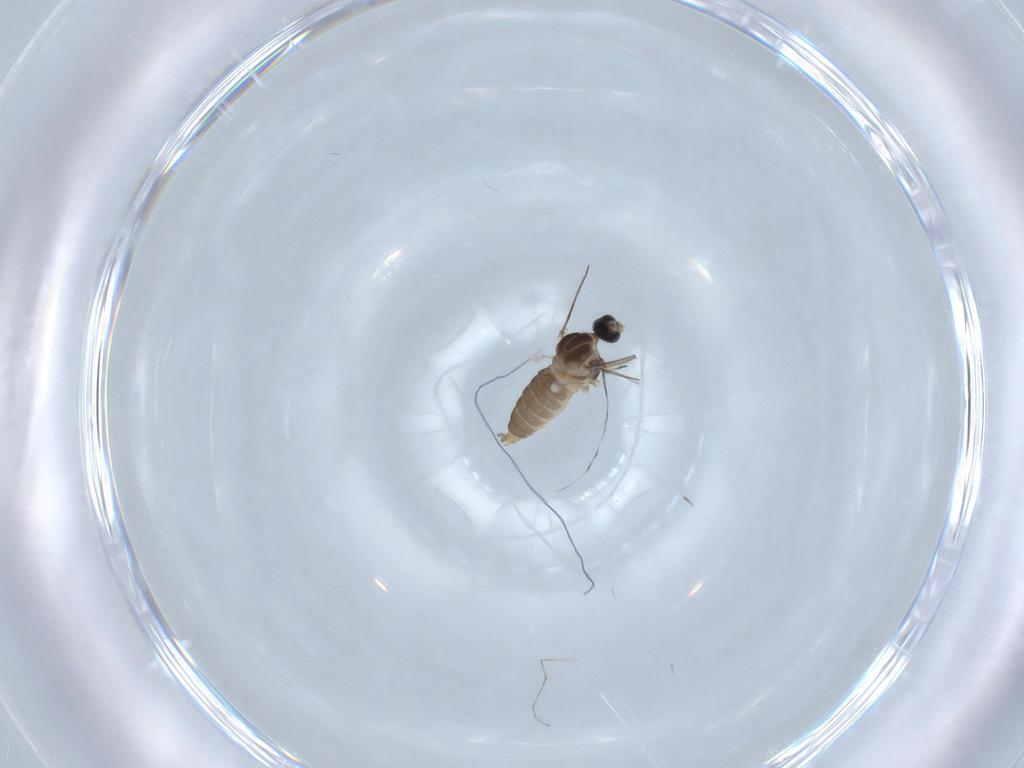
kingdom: Animalia
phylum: Arthropoda
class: Insecta
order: Diptera
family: Cecidomyiidae
